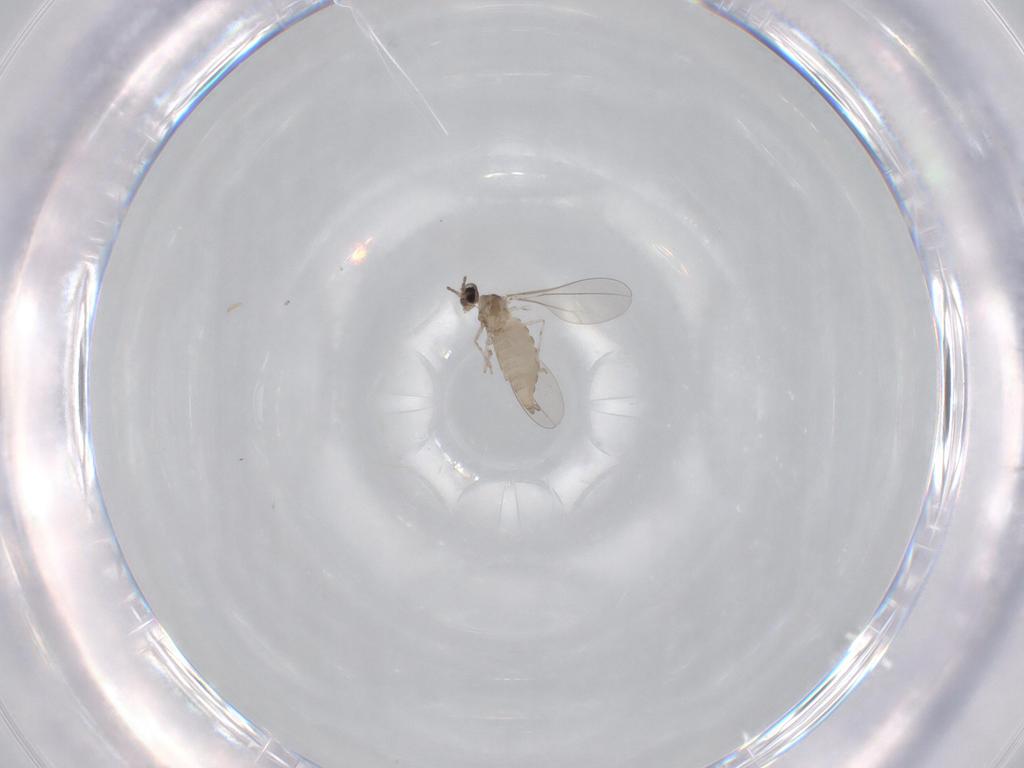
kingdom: Animalia
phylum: Arthropoda
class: Insecta
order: Diptera
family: Cecidomyiidae
